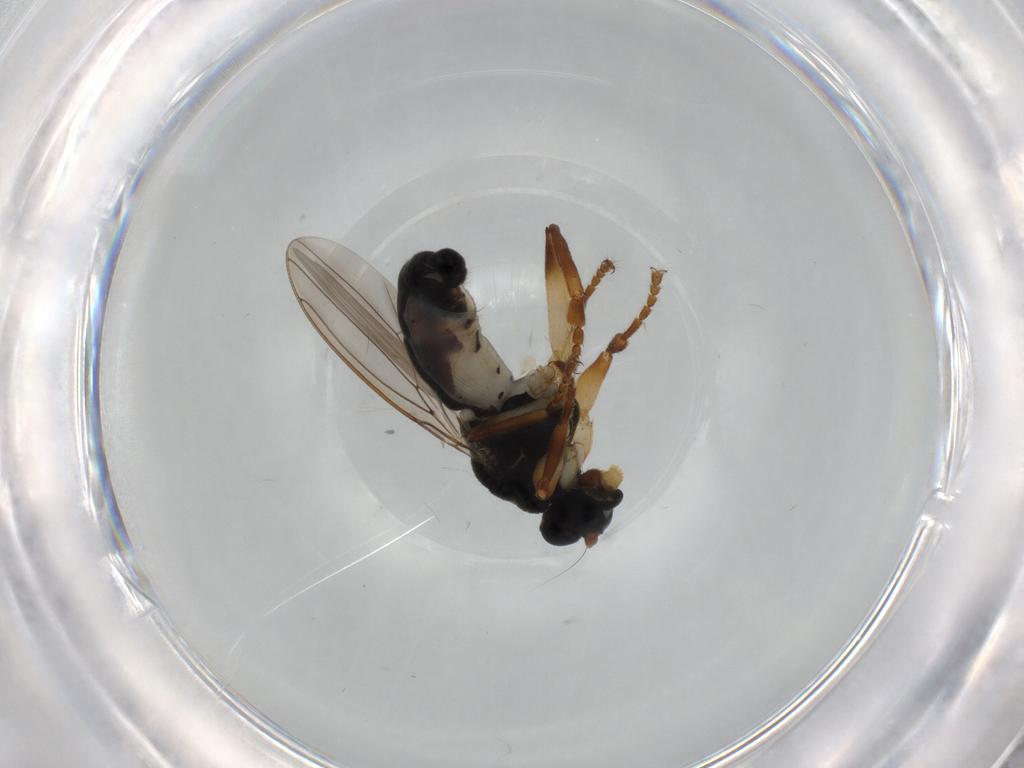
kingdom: Animalia
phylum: Arthropoda
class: Insecta
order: Diptera
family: Sphaeroceridae
